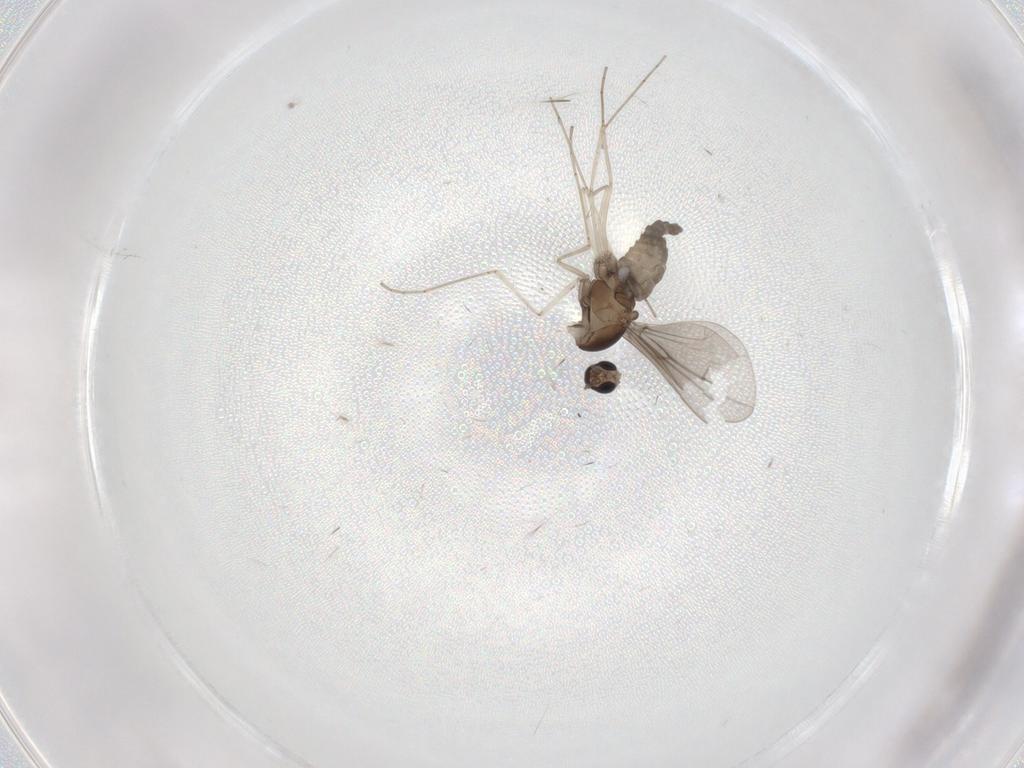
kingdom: Animalia
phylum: Arthropoda
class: Insecta
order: Diptera
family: Cecidomyiidae
